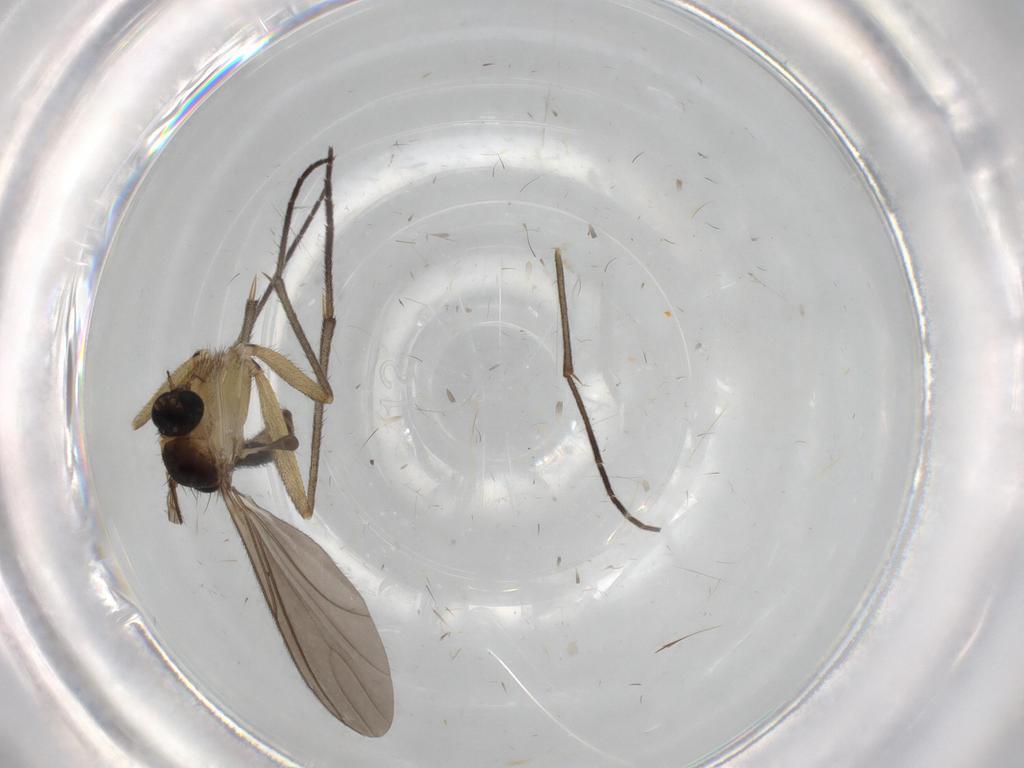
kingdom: Animalia
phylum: Arthropoda
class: Insecta
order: Diptera
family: Sciaridae
